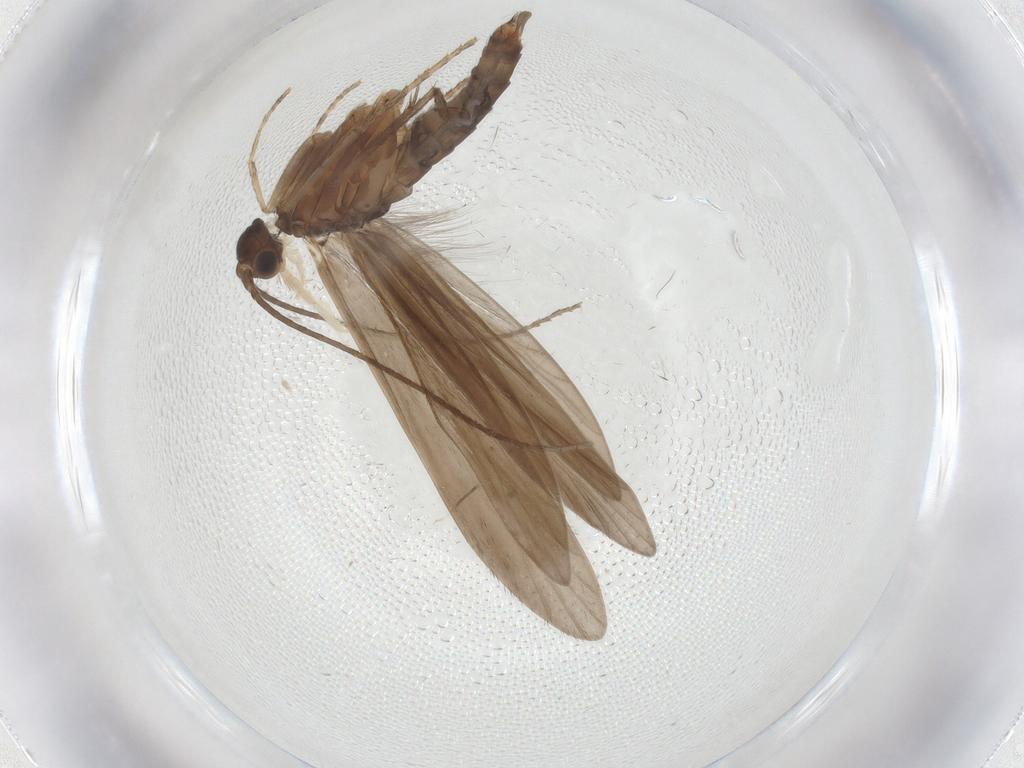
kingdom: Animalia
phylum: Arthropoda
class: Insecta
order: Trichoptera
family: Xiphocentronidae
